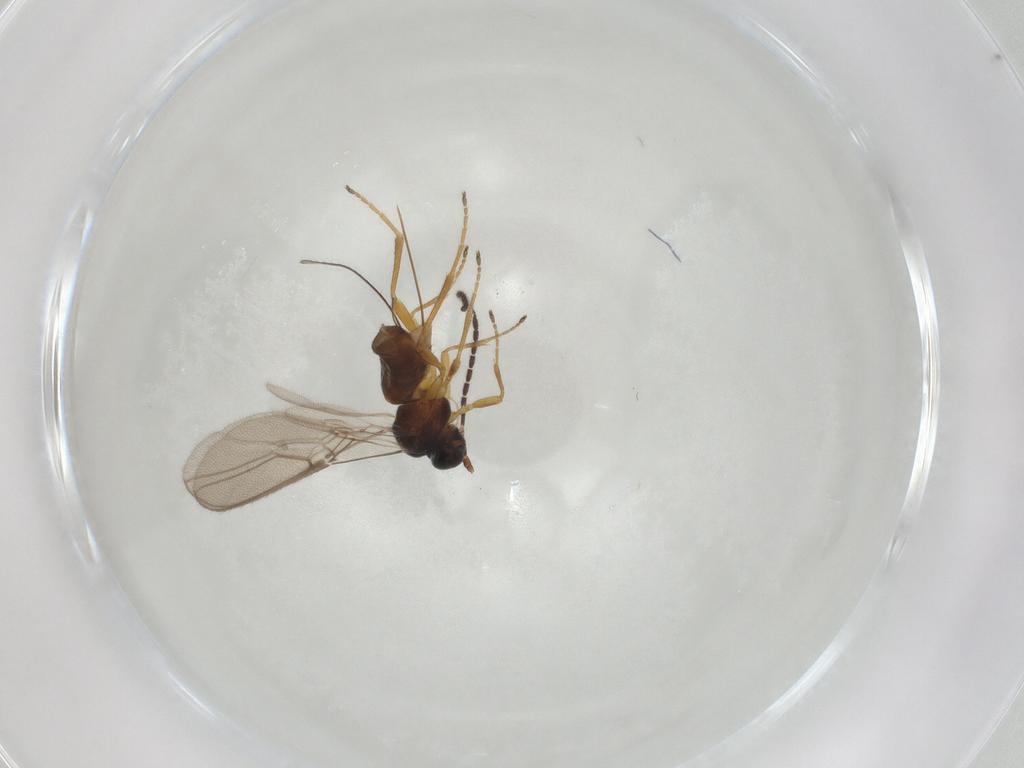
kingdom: Animalia
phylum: Arthropoda
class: Insecta
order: Hymenoptera
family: Braconidae
